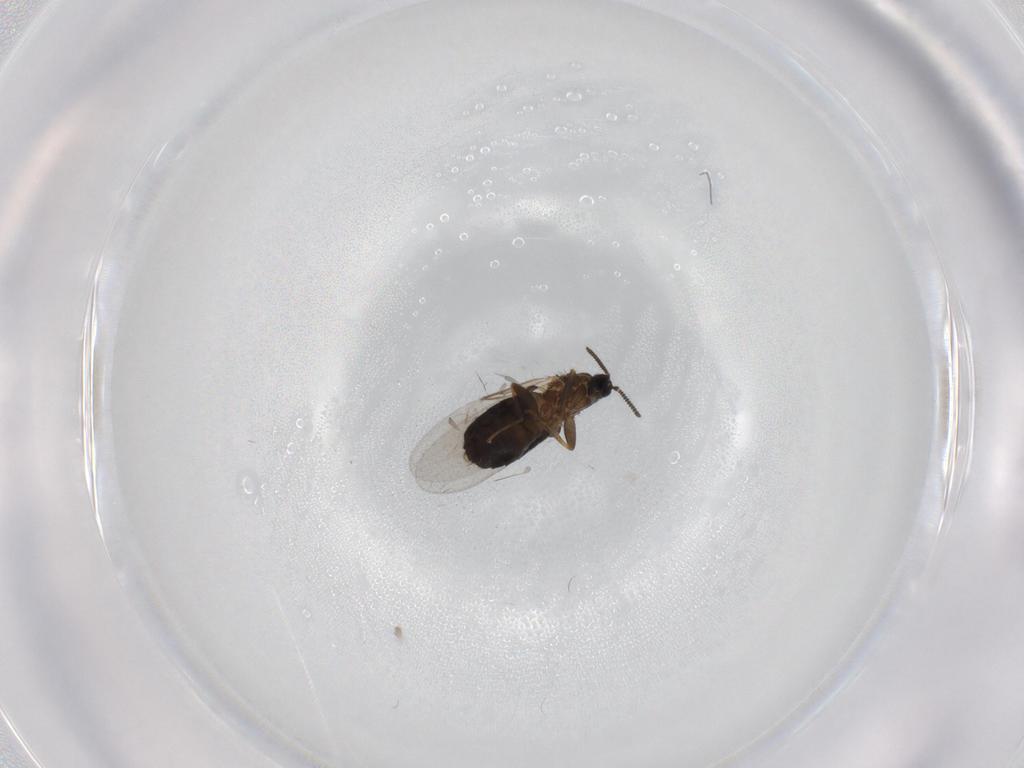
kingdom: Animalia
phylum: Arthropoda
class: Insecta
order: Diptera
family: Scatopsidae
